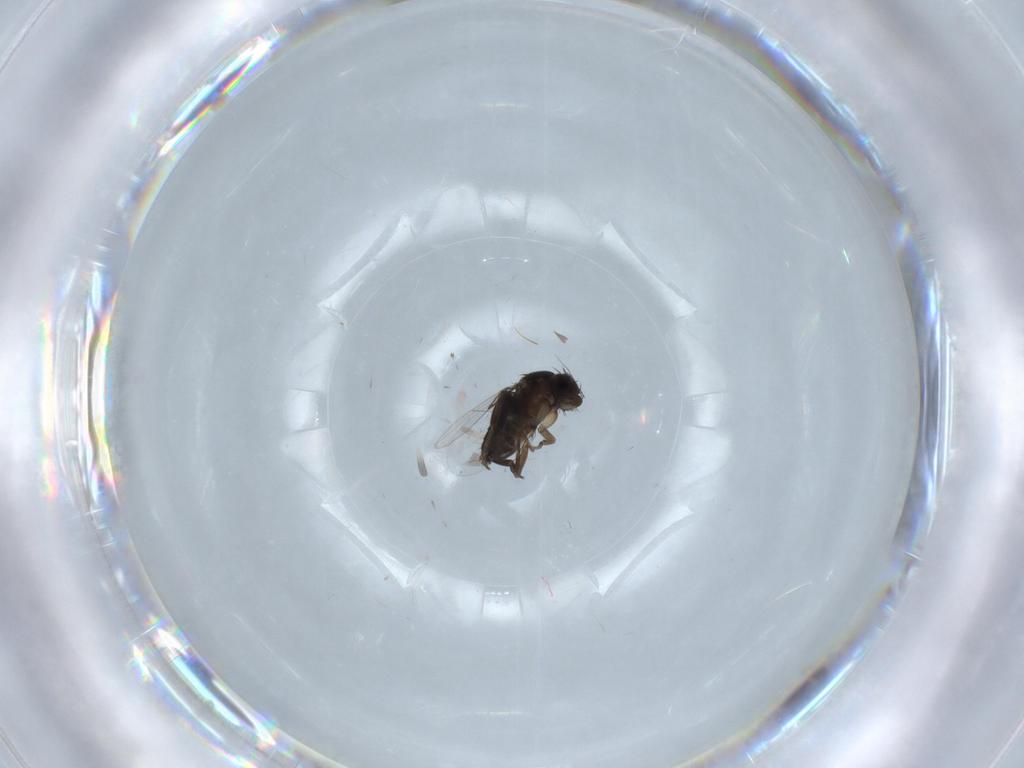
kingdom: Animalia
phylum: Arthropoda
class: Insecta
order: Diptera
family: Phoridae
